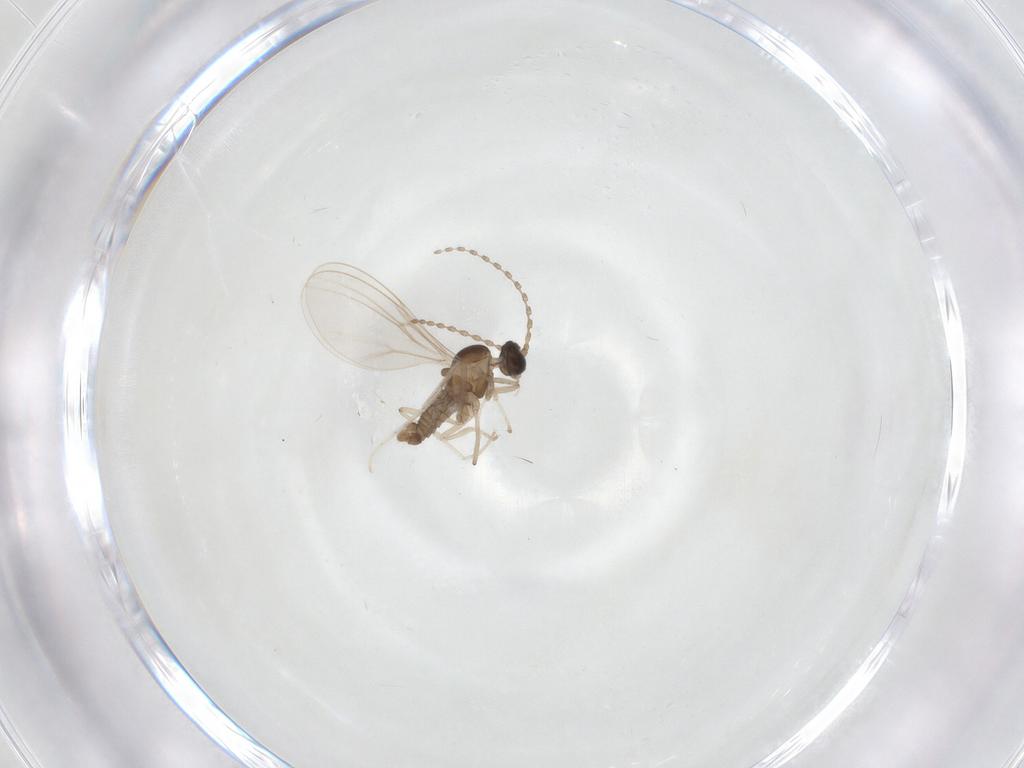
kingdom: Animalia
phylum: Arthropoda
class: Insecta
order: Diptera
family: Cecidomyiidae
